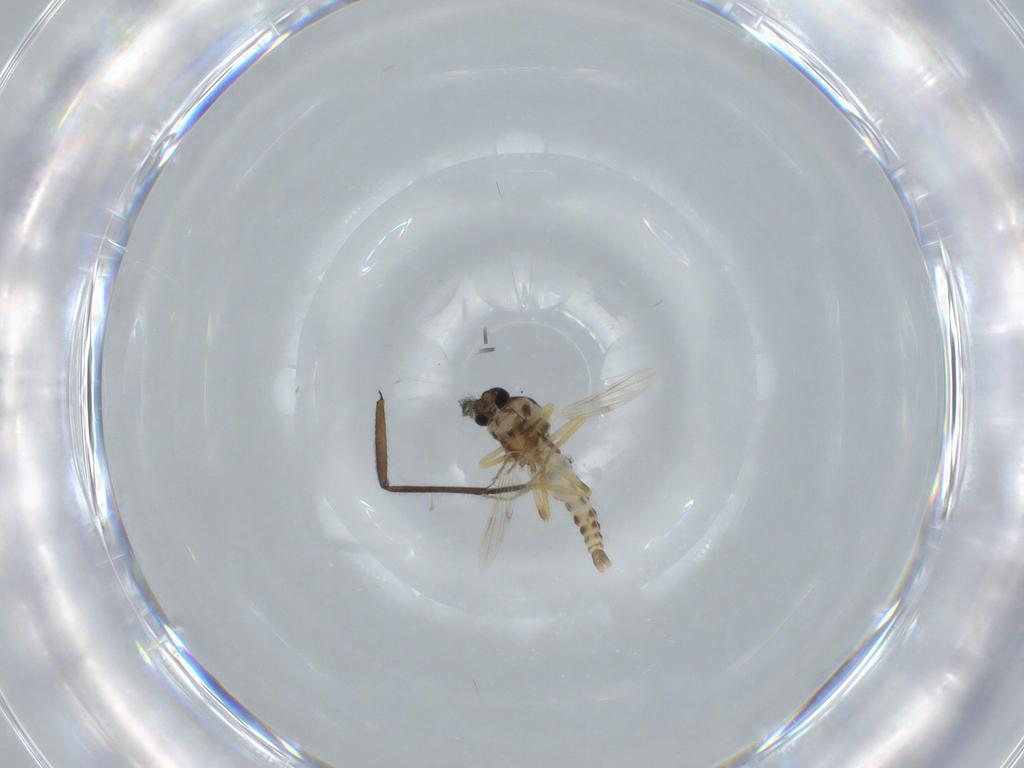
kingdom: Animalia
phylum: Arthropoda
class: Insecta
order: Diptera
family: Ceratopogonidae
